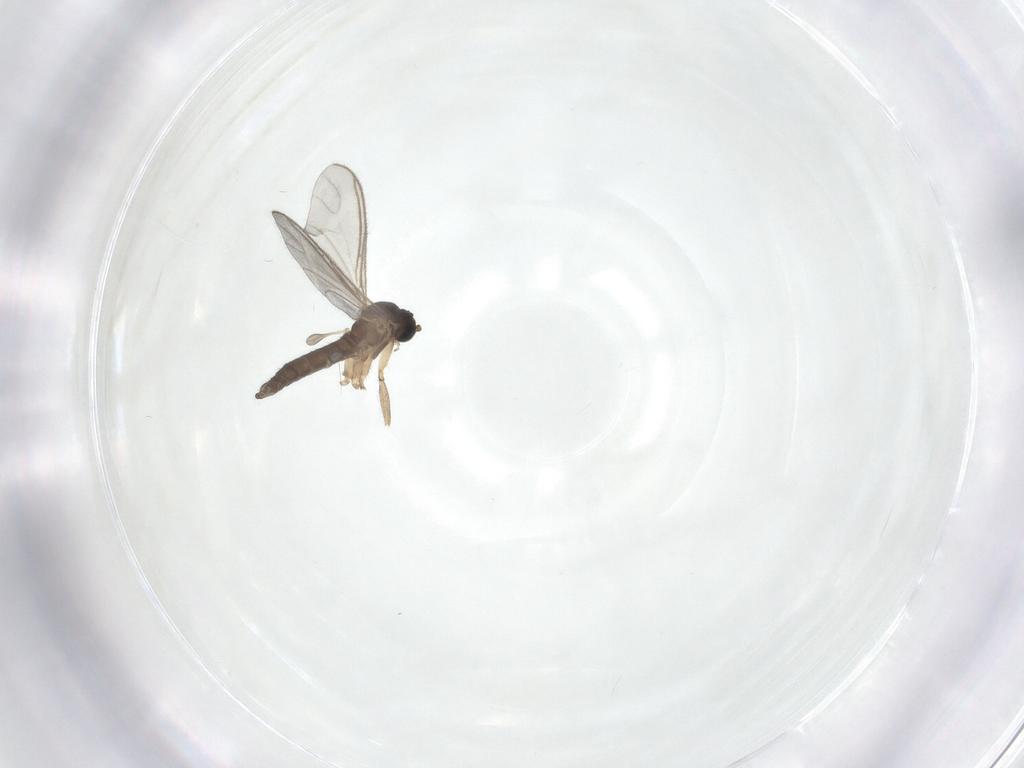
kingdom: Animalia
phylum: Arthropoda
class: Insecta
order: Diptera
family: Sciaridae
